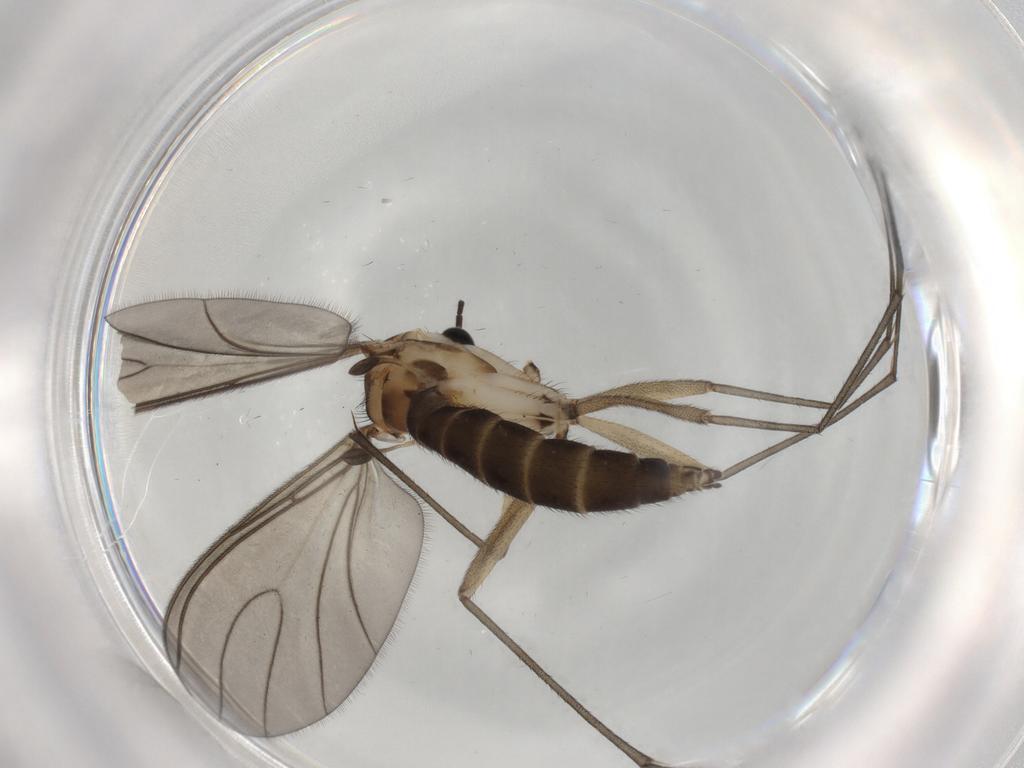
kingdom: Animalia
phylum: Arthropoda
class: Insecta
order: Diptera
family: Sciaridae
